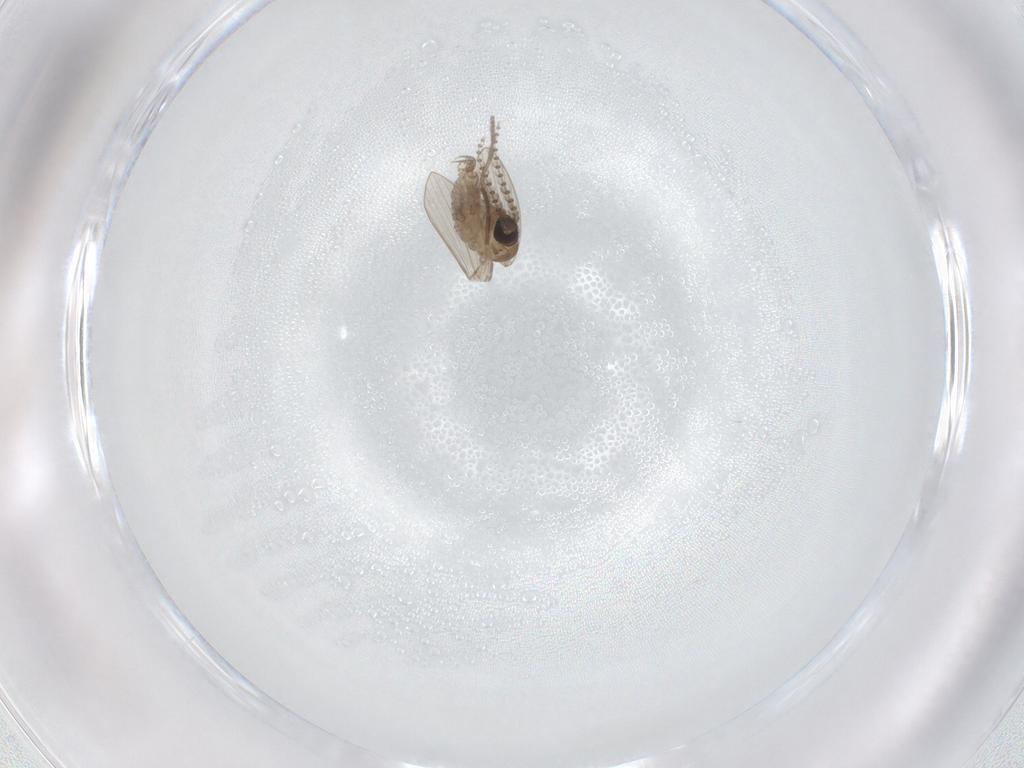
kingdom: Animalia
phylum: Arthropoda
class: Insecta
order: Diptera
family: Psychodidae
